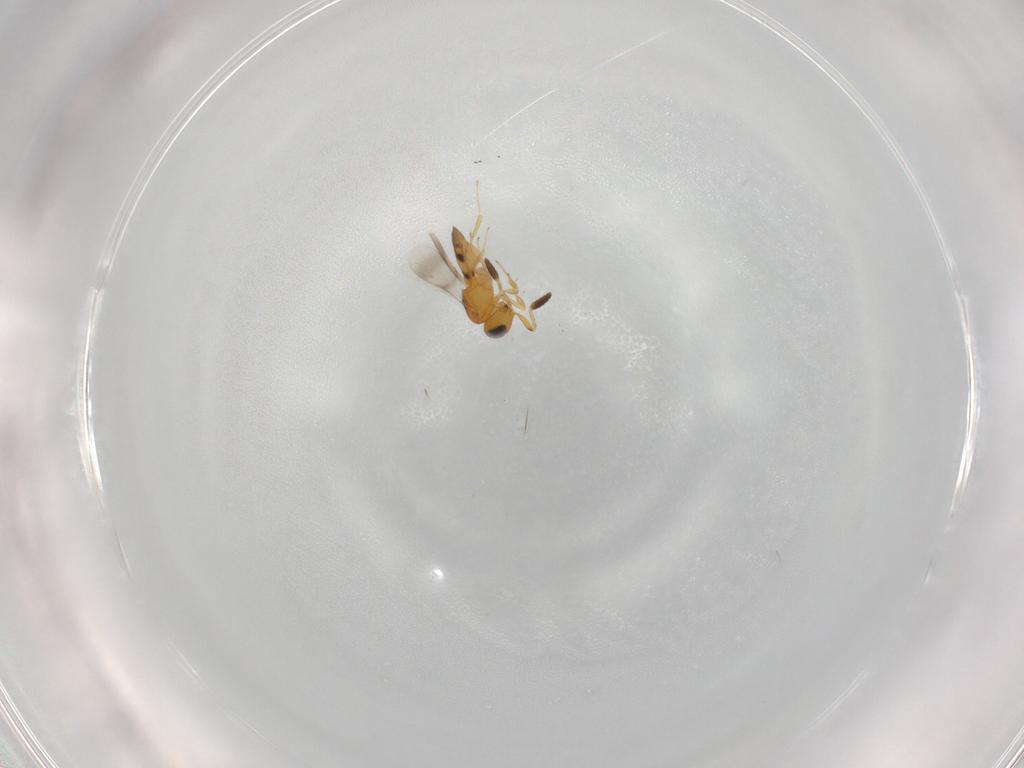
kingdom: Animalia
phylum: Arthropoda
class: Insecta
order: Hymenoptera
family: Scelionidae
